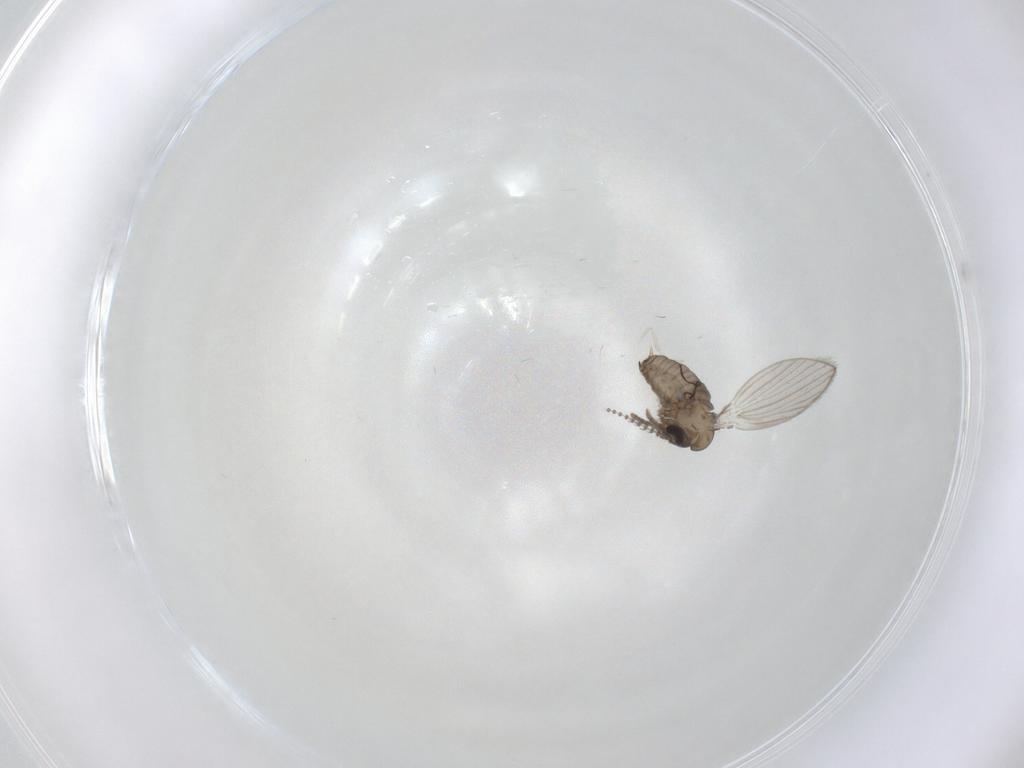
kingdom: Animalia
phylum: Arthropoda
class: Insecta
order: Diptera
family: Psychodidae
